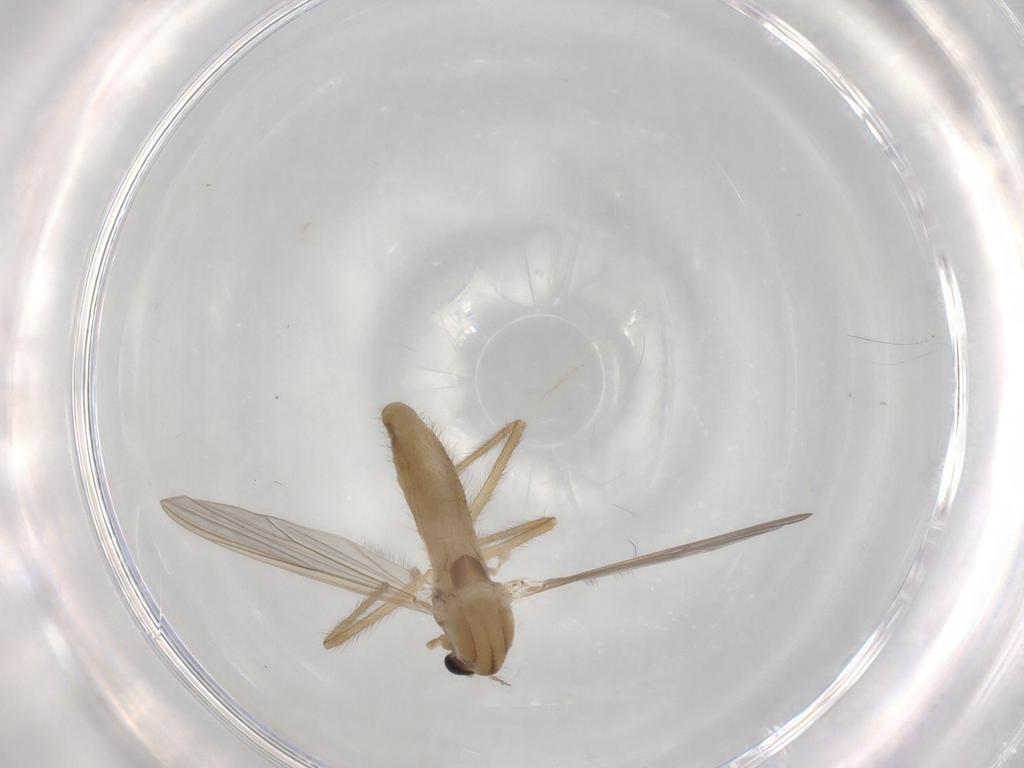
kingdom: Animalia
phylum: Arthropoda
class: Insecta
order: Diptera
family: Chironomidae
